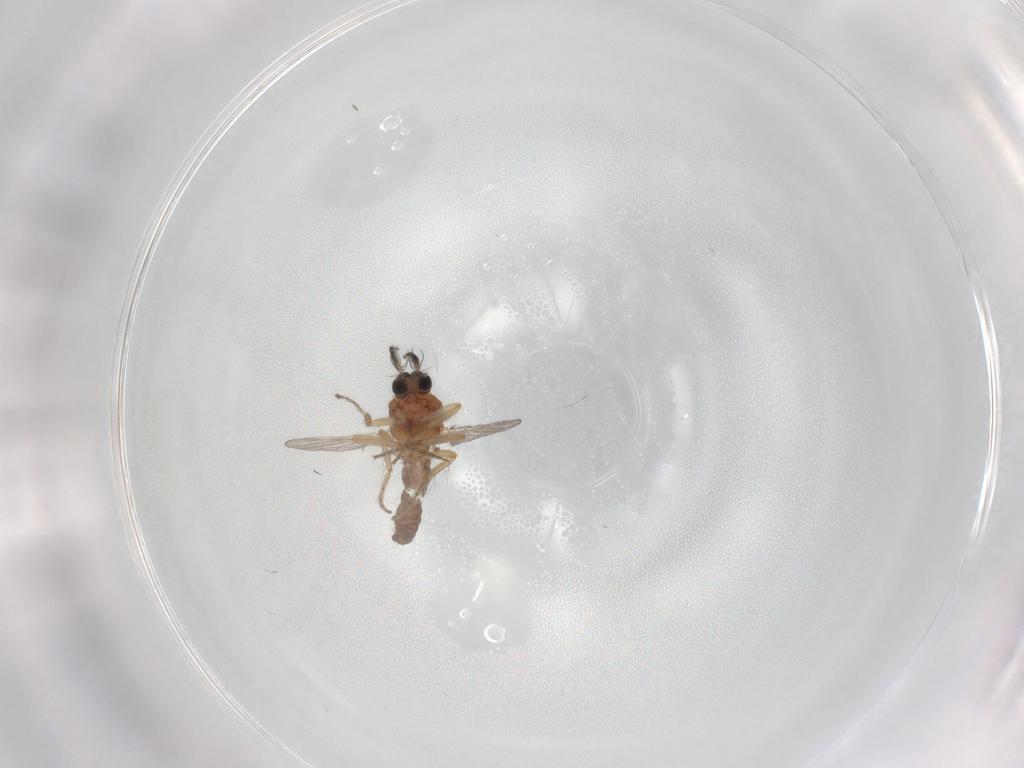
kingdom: Animalia
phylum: Arthropoda
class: Insecta
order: Diptera
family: Ceratopogonidae
